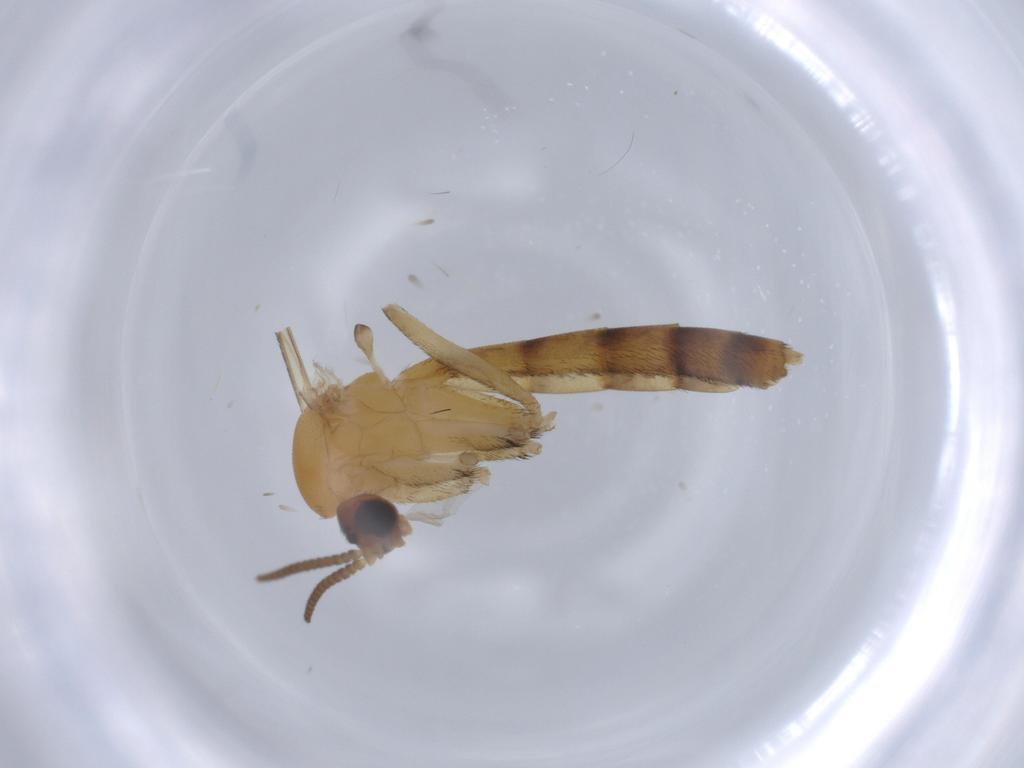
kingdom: Animalia
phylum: Arthropoda
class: Insecta
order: Diptera
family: Keroplatidae
